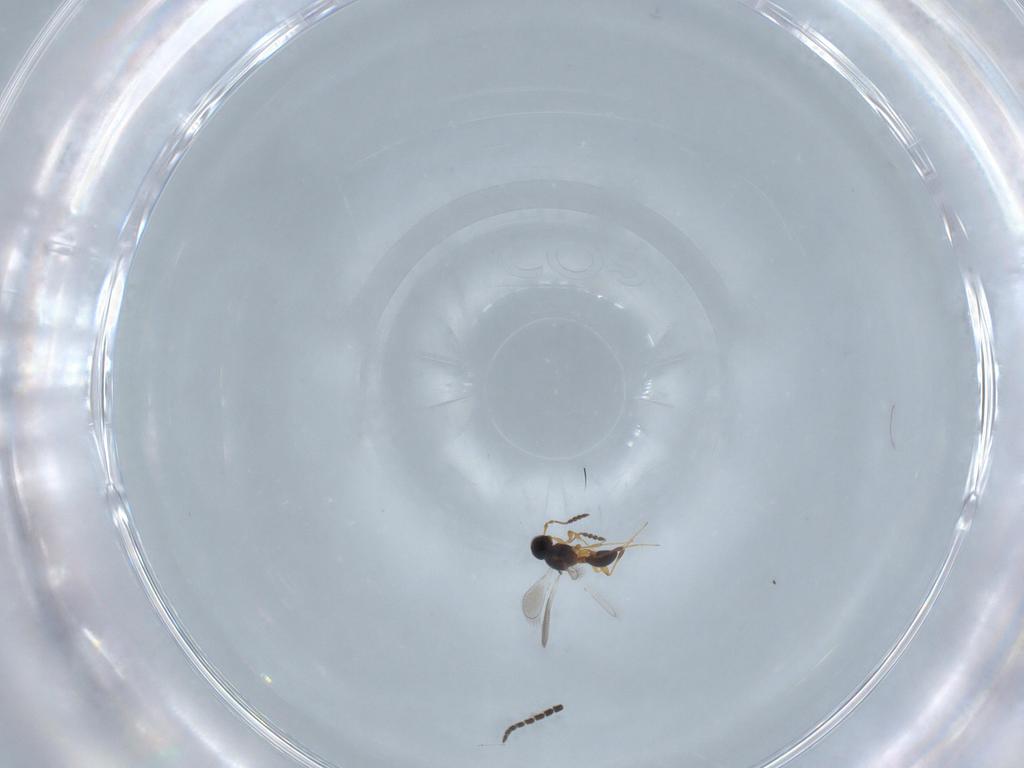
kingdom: Animalia
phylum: Arthropoda
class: Insecta
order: Hymenoptera
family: Platygastridae
